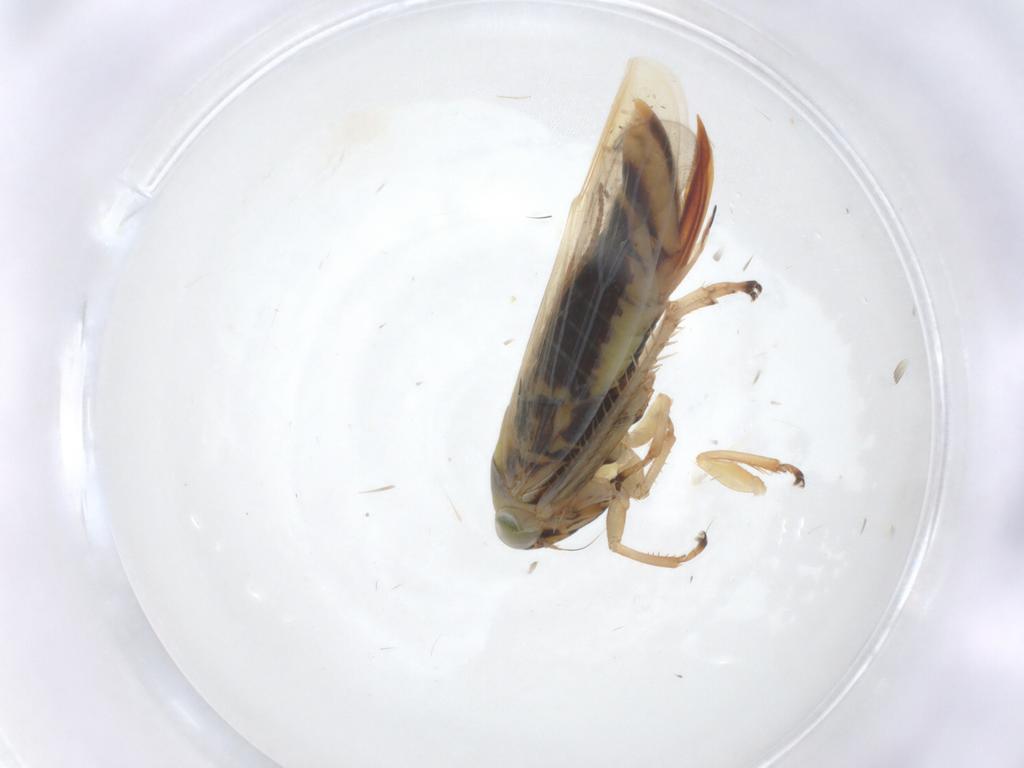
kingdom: Animalia
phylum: Arthropoda
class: Insecta
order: Hemiptera
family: Cicadellidae
